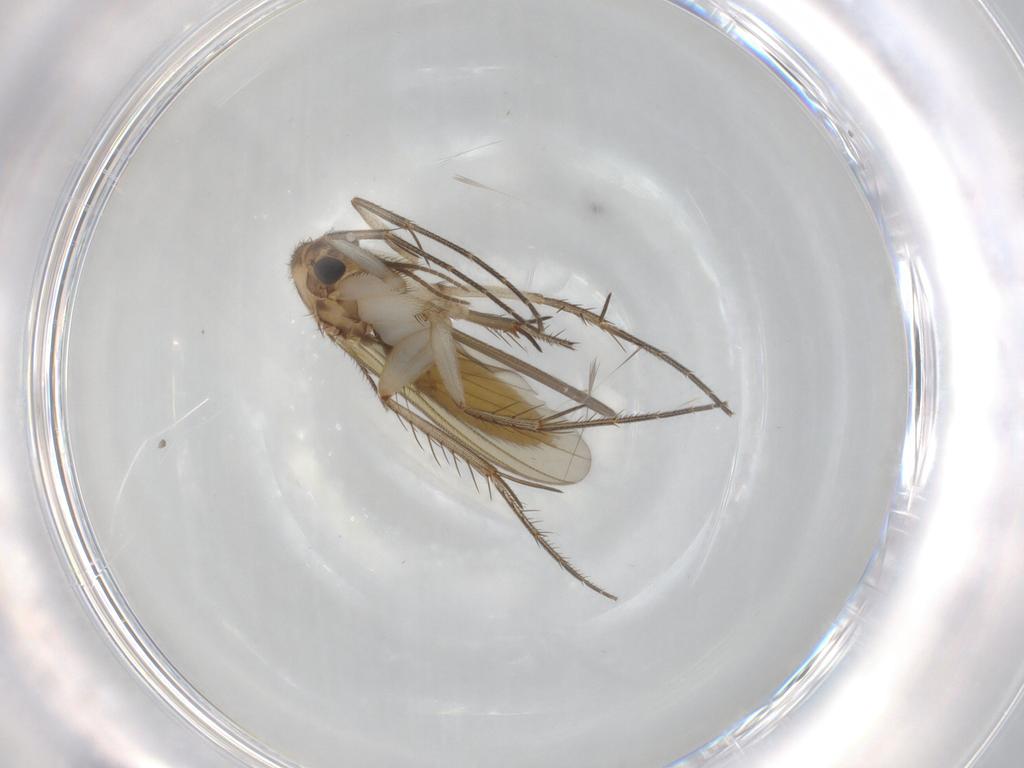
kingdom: Animalia
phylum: Arthropoda
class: Insecta
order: Diptera
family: Mycetophilidae
